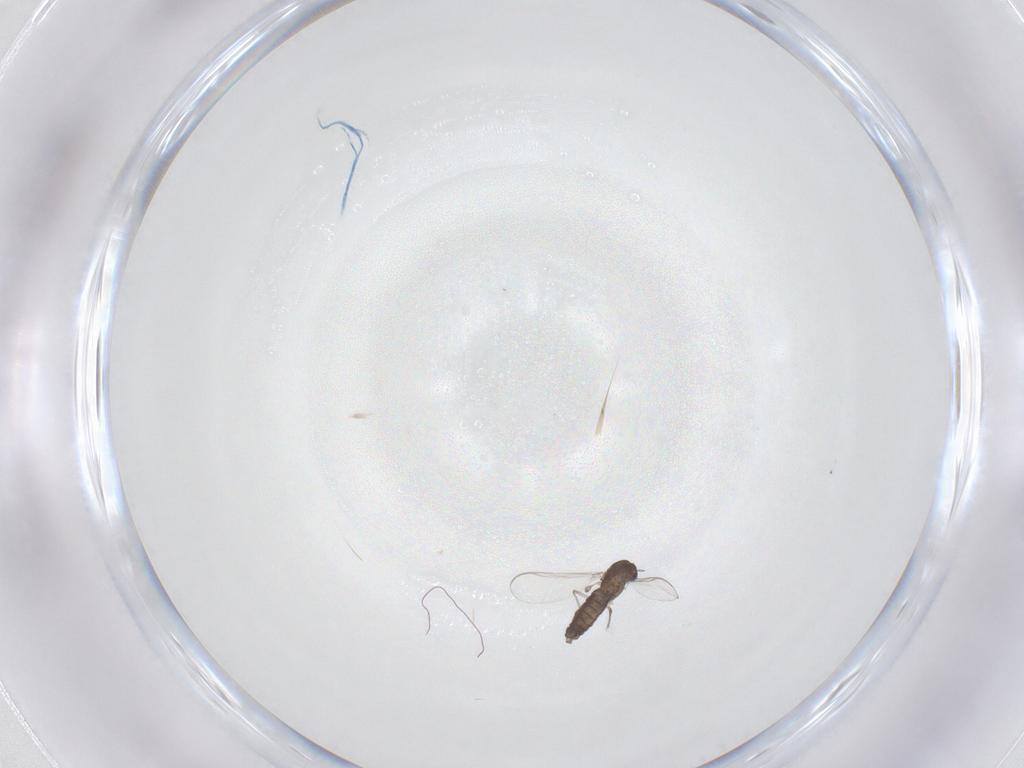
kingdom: Animalia
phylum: Arthropoda
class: Insecta
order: Diptera
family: Chironomidae
